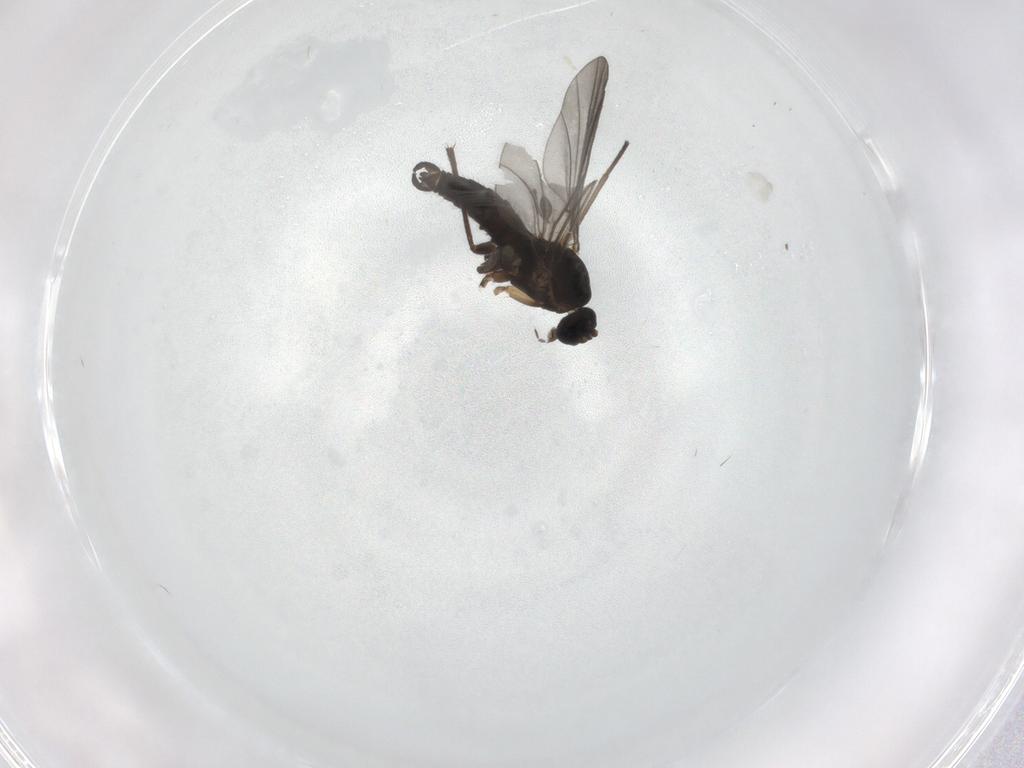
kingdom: Animalia
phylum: Arthropoda
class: Insecta
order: Diptera
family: Ditomyiidae
